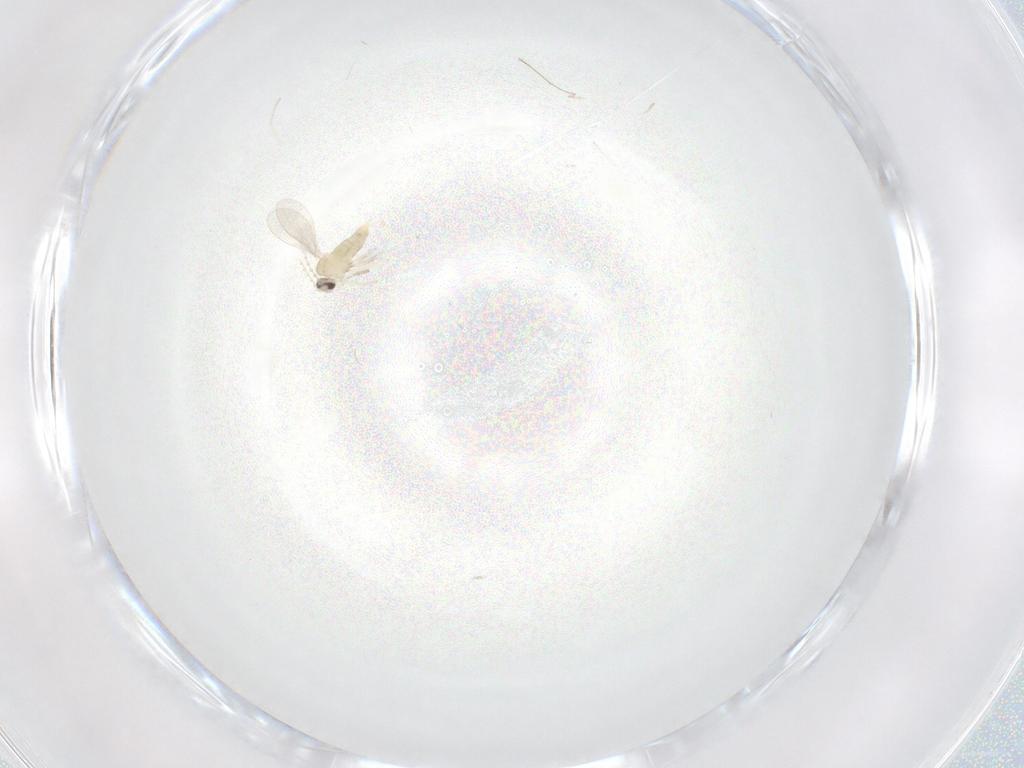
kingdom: Animalia
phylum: Arthropoda
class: Insecta
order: Diptera
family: Cecidomyiidae
